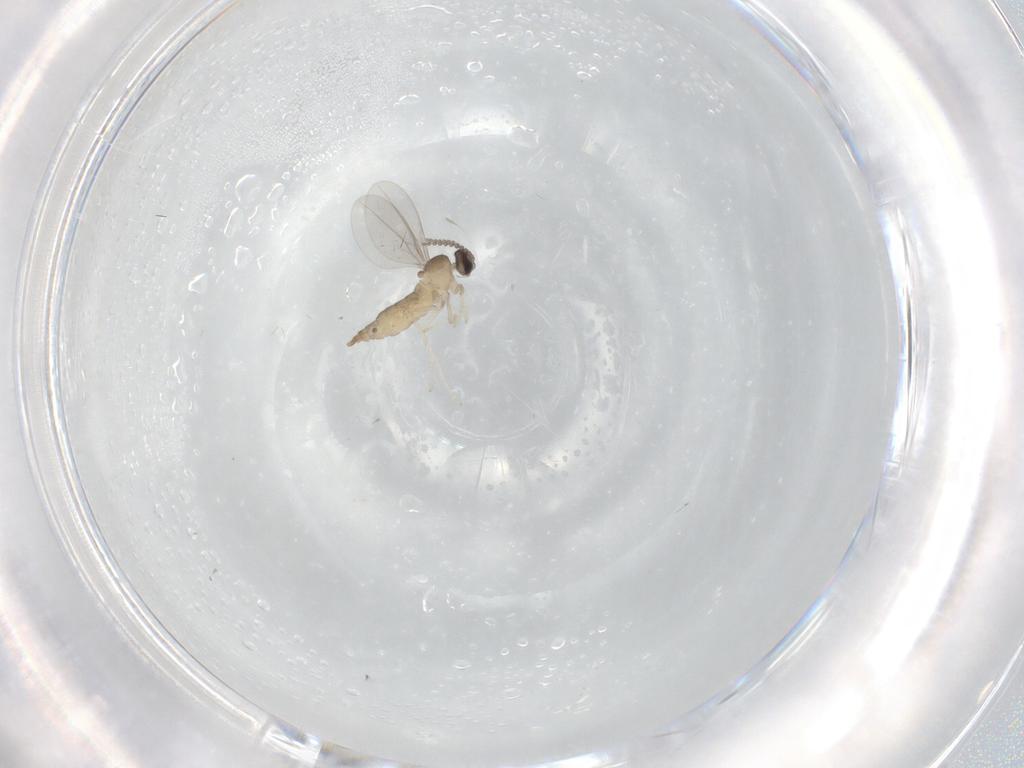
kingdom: Animalia
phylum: Arthropoda
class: Insecta
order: Diptera
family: Cecidomyiidae
